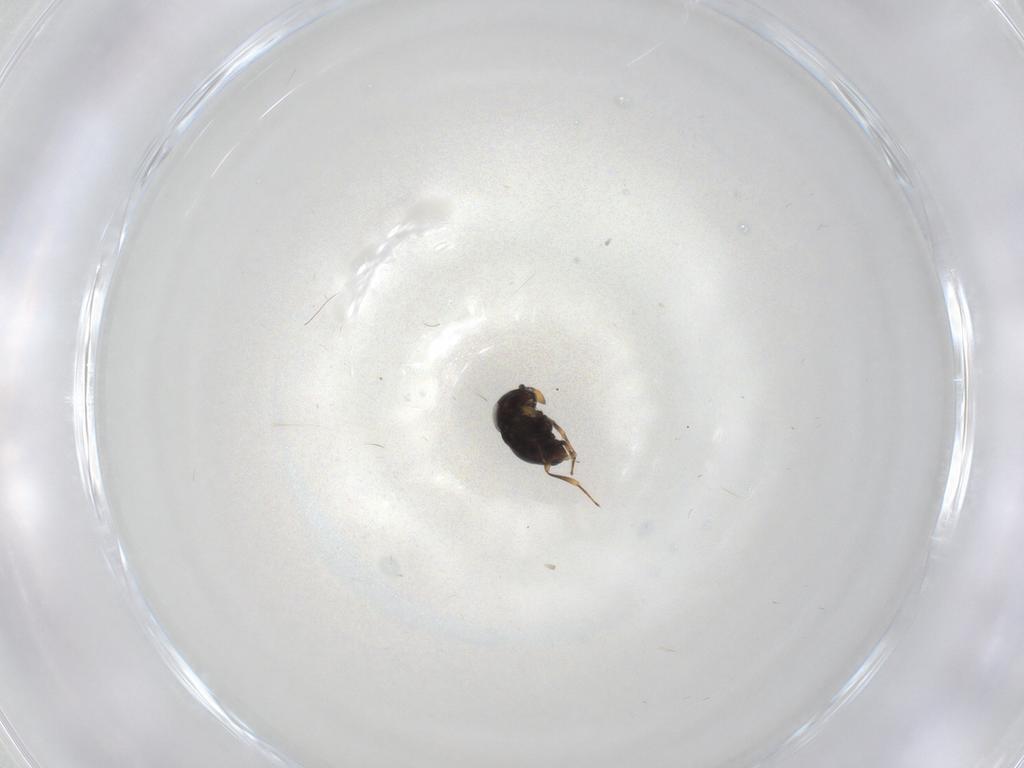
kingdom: Animalia
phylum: Arthropoda
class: Insecta
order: Hymenoptera
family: Scelionidae
